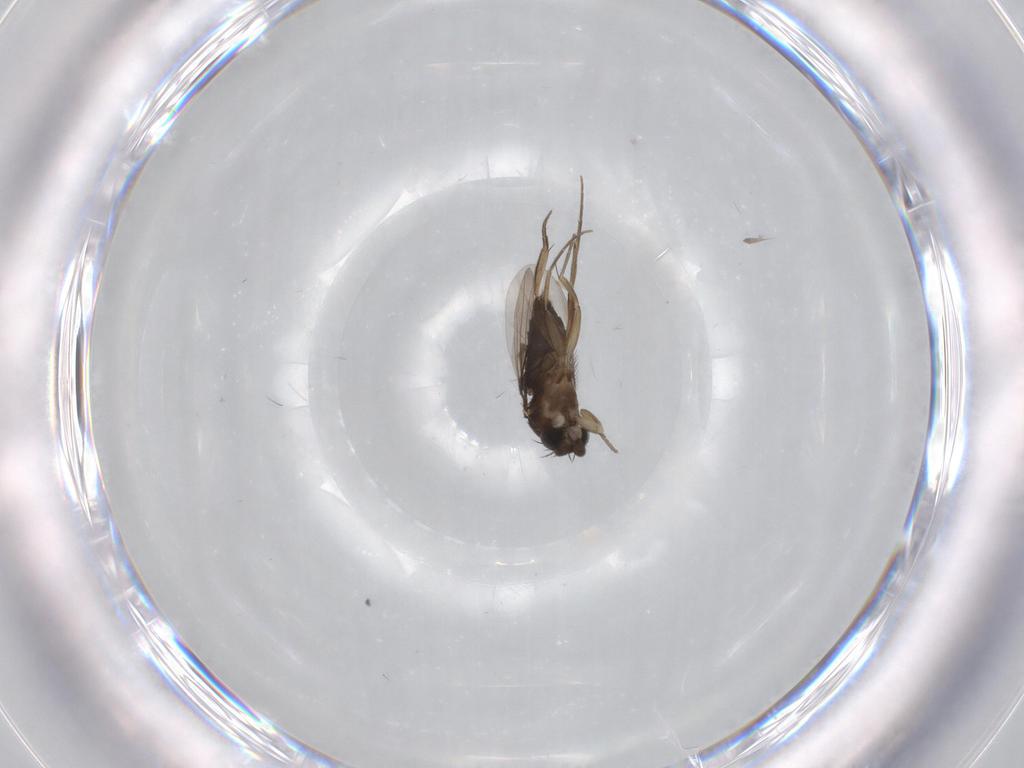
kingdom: Animalia
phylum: Arthropoda
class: Insecta
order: Diptera
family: Phoridae
